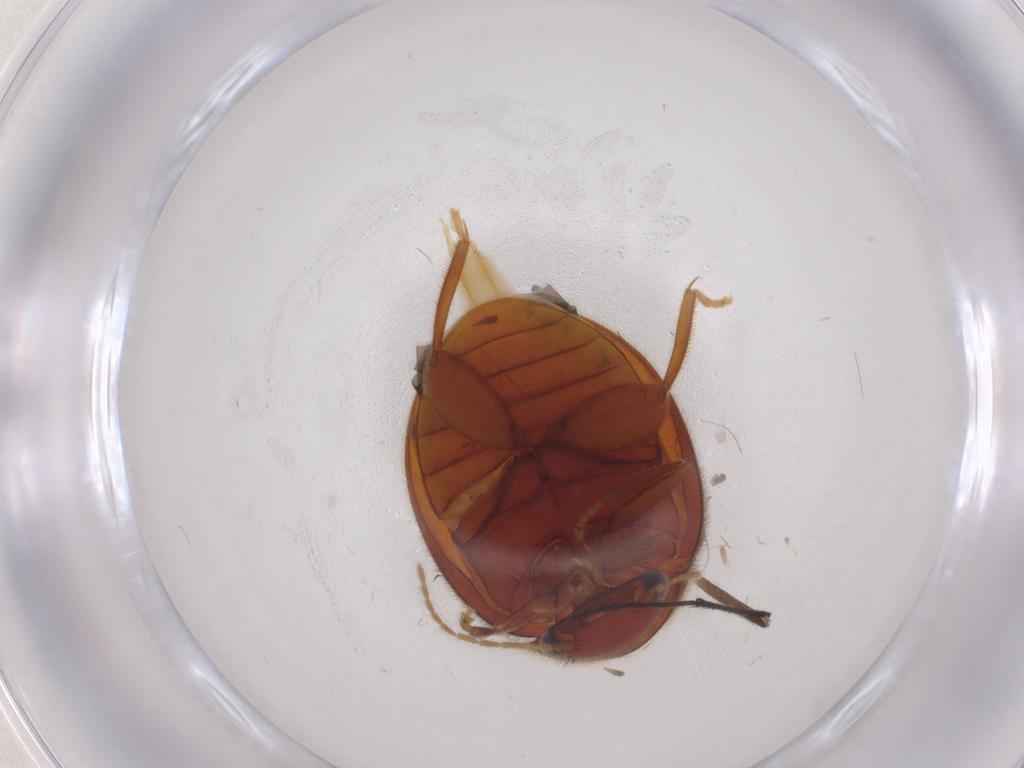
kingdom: Animalia
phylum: Arthropoda
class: Insecta
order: Coleoptera
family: Scirtidae
